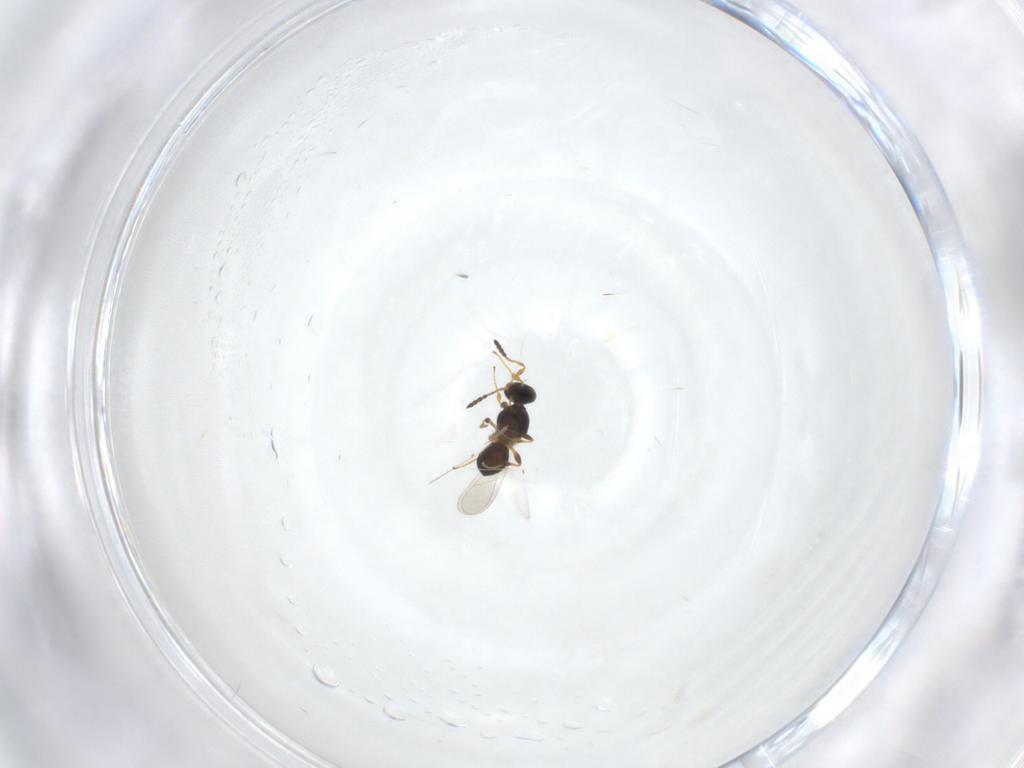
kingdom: Animalia
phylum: Arthropoda
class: Insecta
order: Hymenoptera
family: Platygastridae
